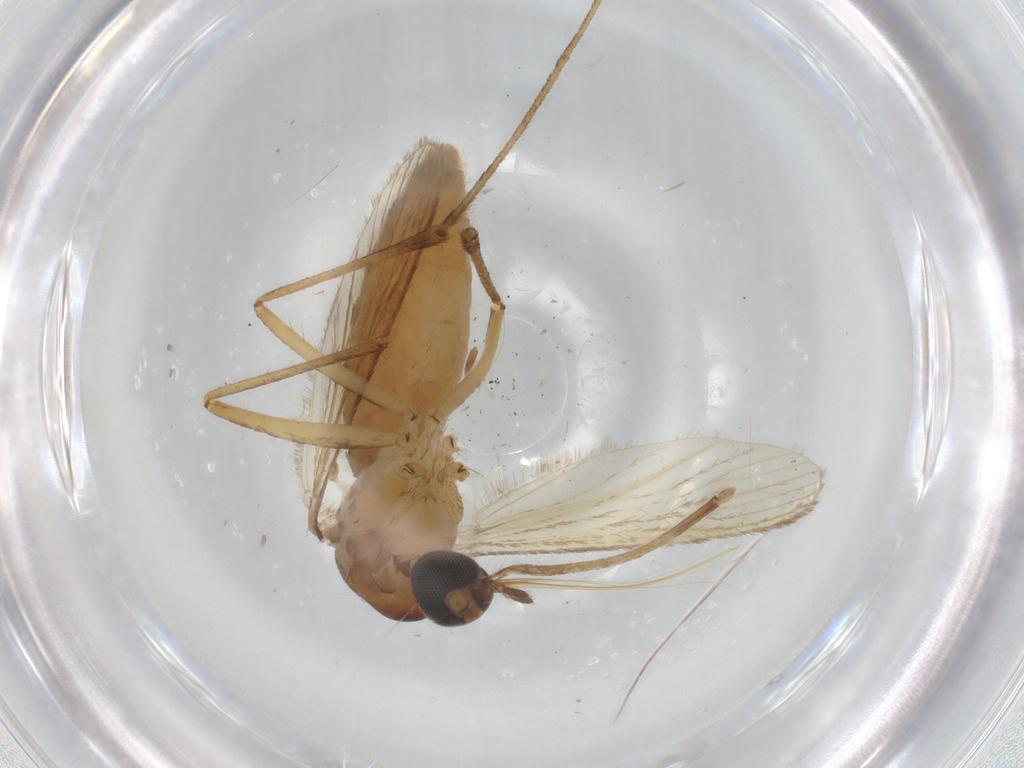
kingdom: Animalia
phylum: Arthropoda
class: Insecta
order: Diptera
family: Culicidae
